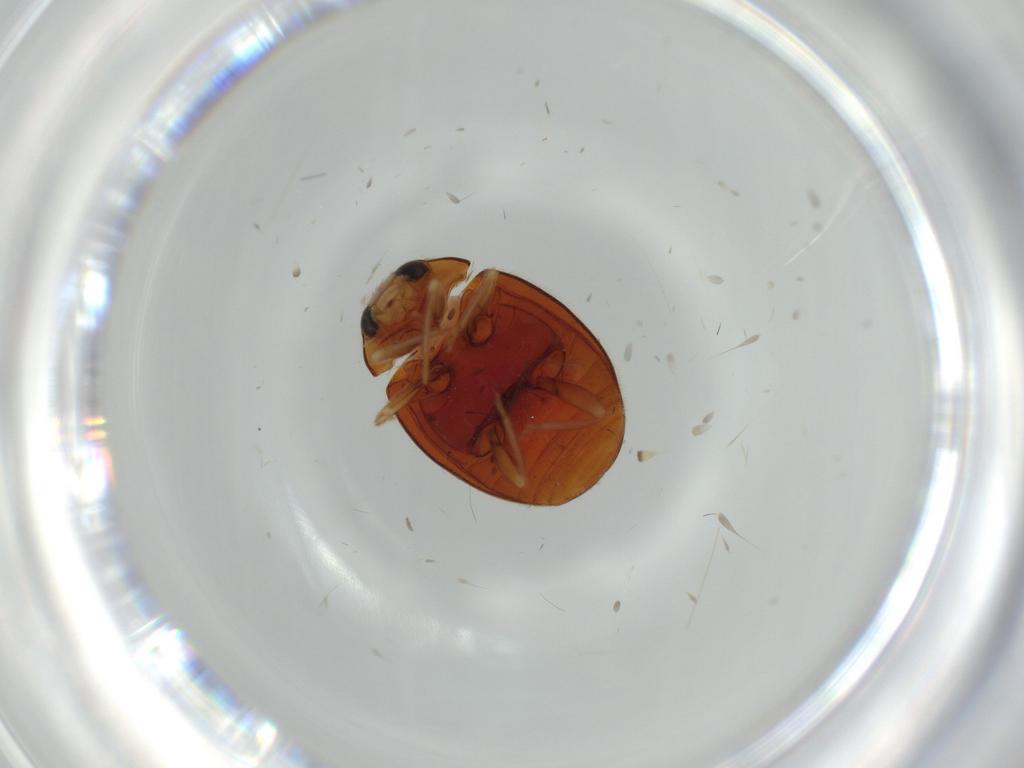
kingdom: Animalia
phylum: Arthropoda
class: Insecta
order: Coleoptera
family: Coccinellidae
